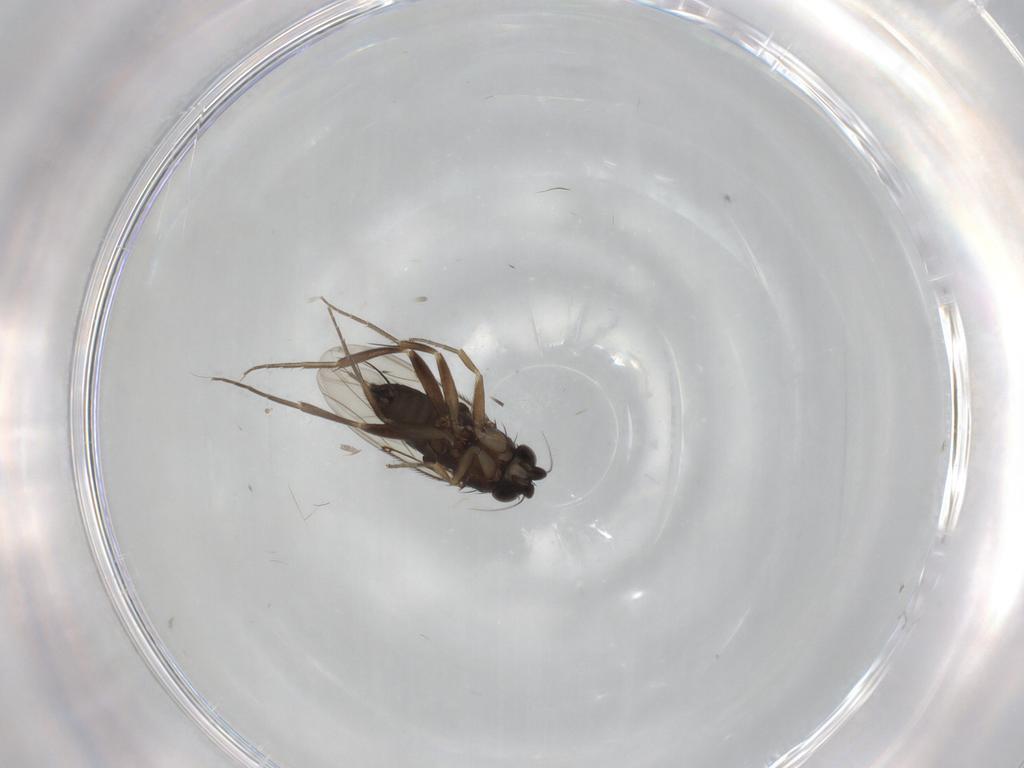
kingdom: Animalia
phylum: Arthropoda
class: Insecta
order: Diptera
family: Phoridae
